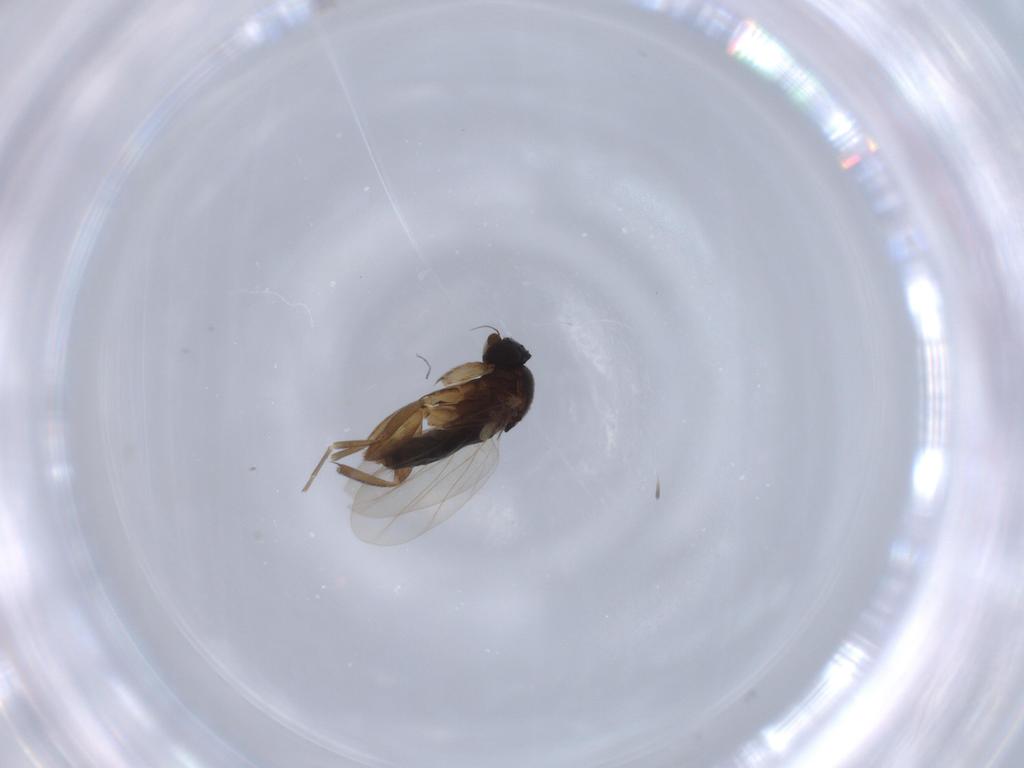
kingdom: Animalia
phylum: Arthropoda
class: Insecta
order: Diptera
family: Phoridae
